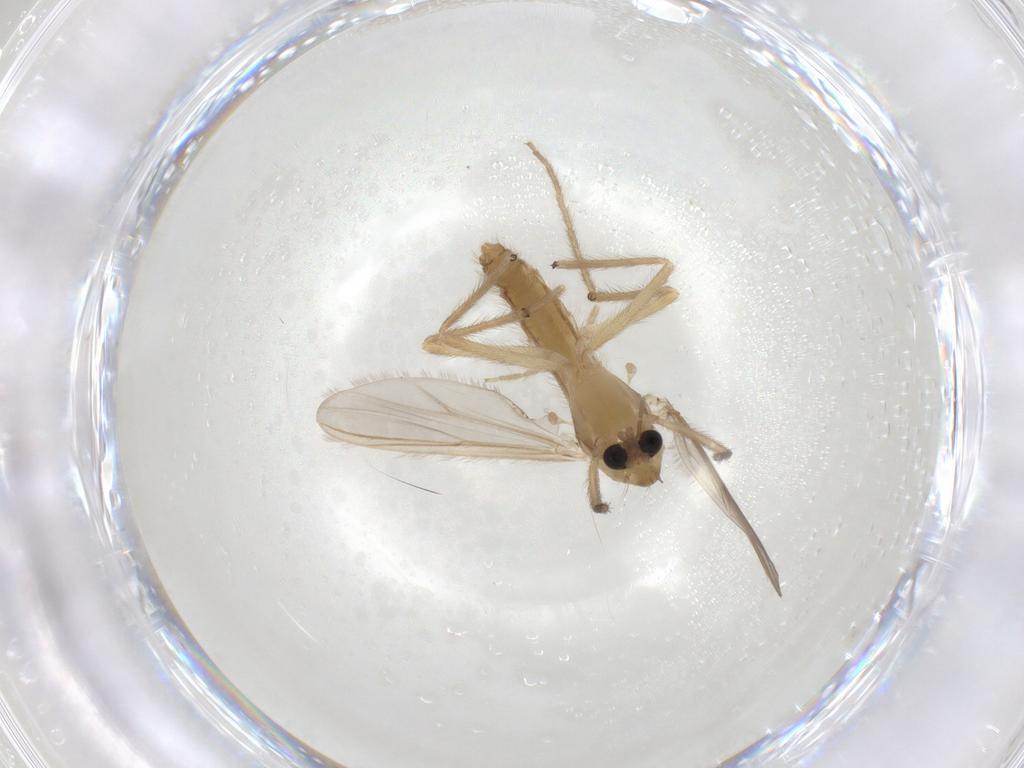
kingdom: Animalia
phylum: Arthropoda
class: Insecta
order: Diptera
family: Chironomidae
